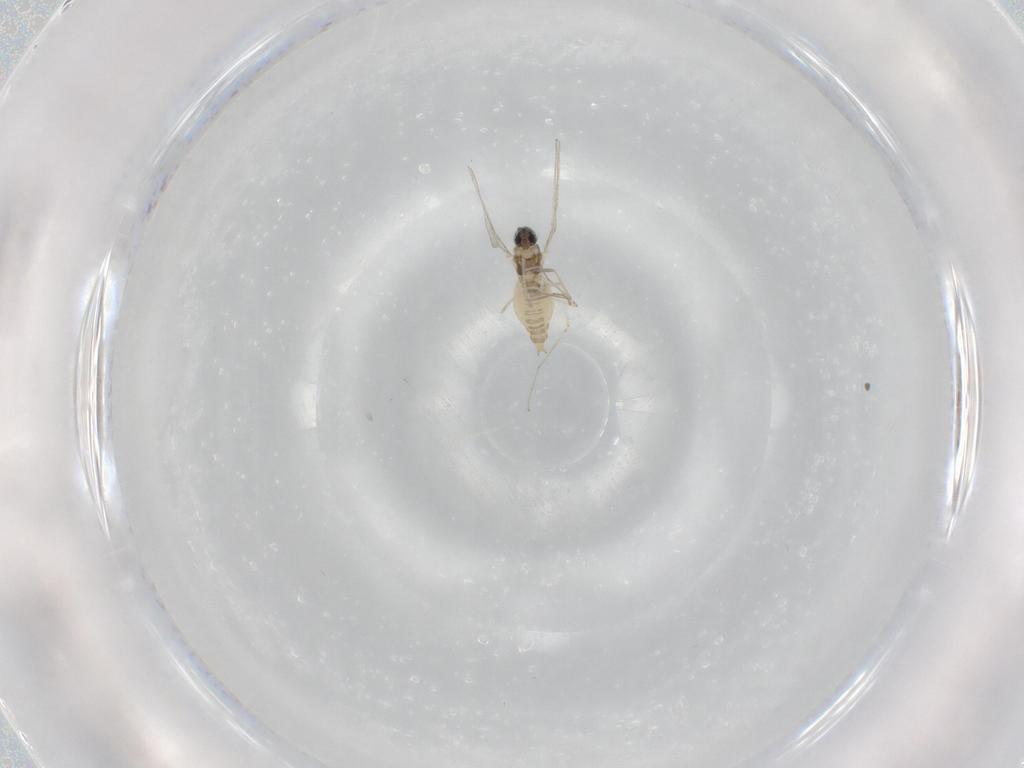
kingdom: Animalia
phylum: Arthropoda
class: Insecta
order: Diptera
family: Cecidomyiidae
